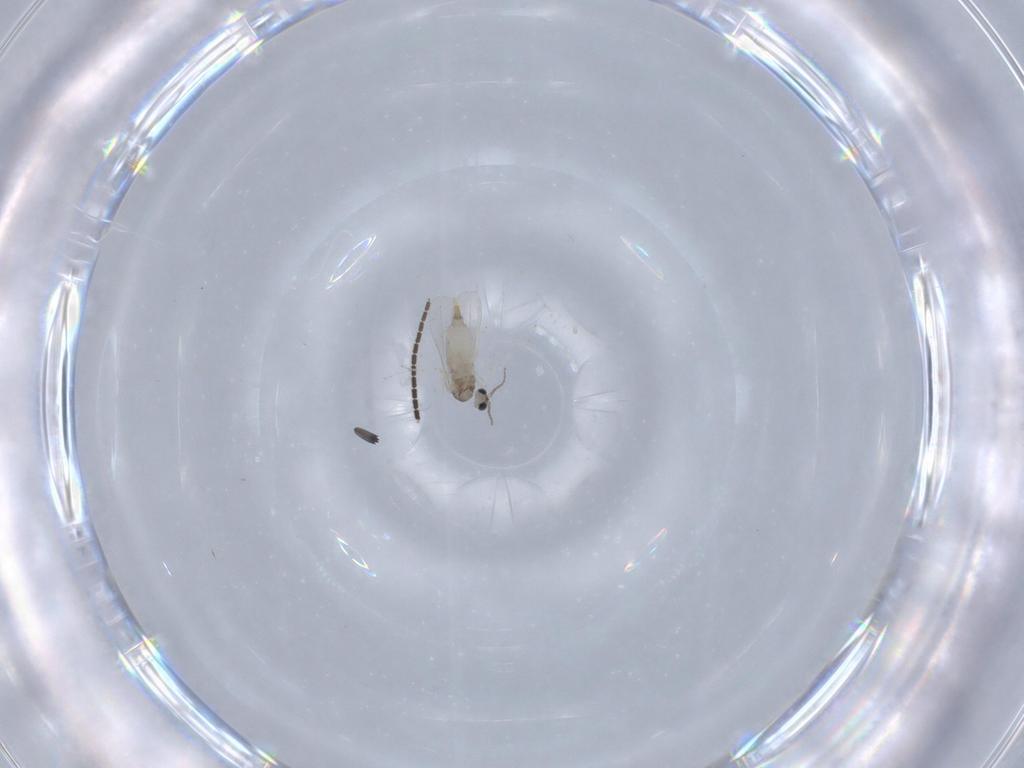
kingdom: Animalia
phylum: Arthropoda
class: Insecta
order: Diptera
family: Sciaridae
